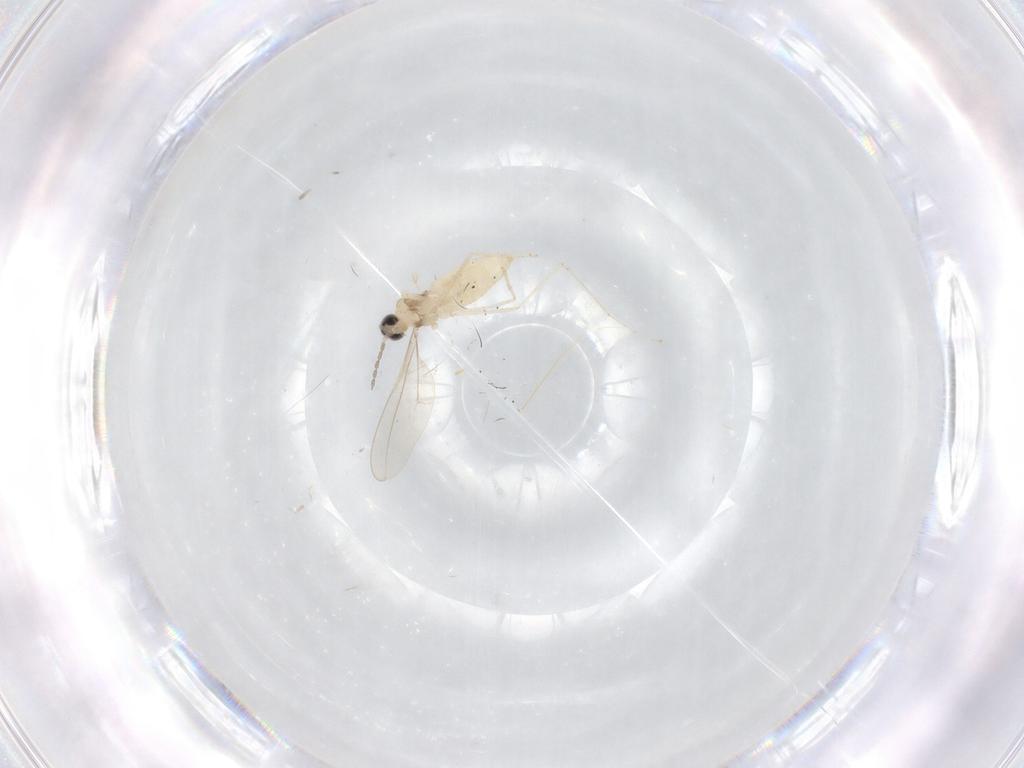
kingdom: Animalia
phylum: Arthropoda
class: Insecta
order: Diptera
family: Cecidomyiidae
